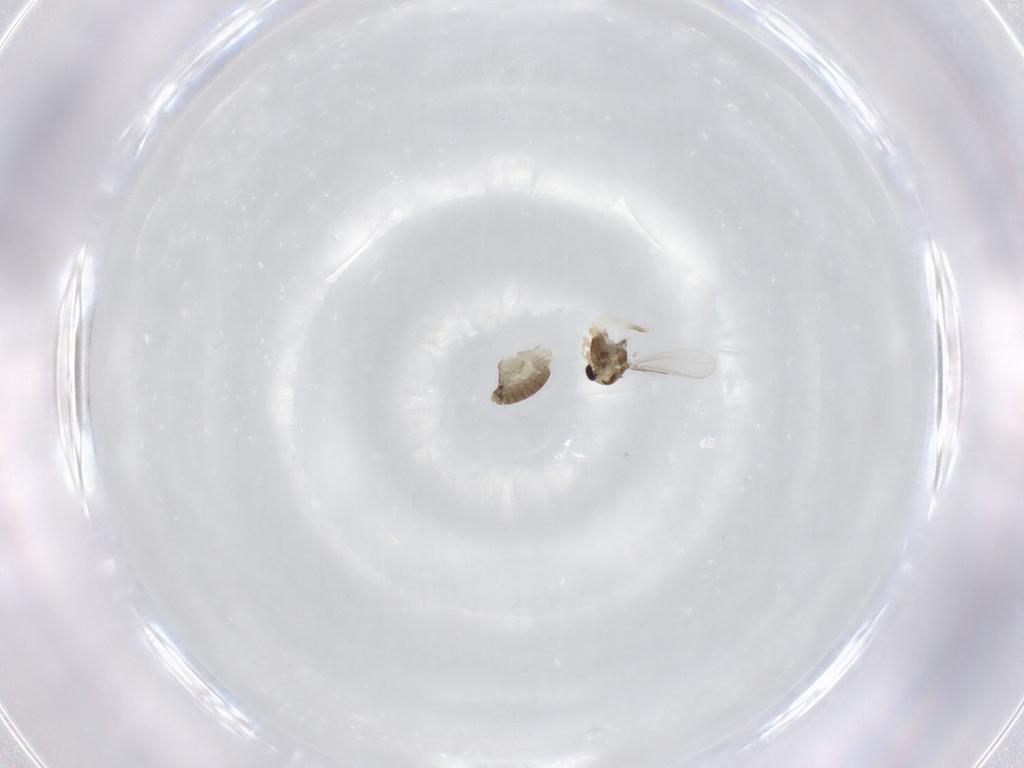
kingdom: Animalia
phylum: Arthropoda
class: Insecta
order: Diptera
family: Chironomidae
